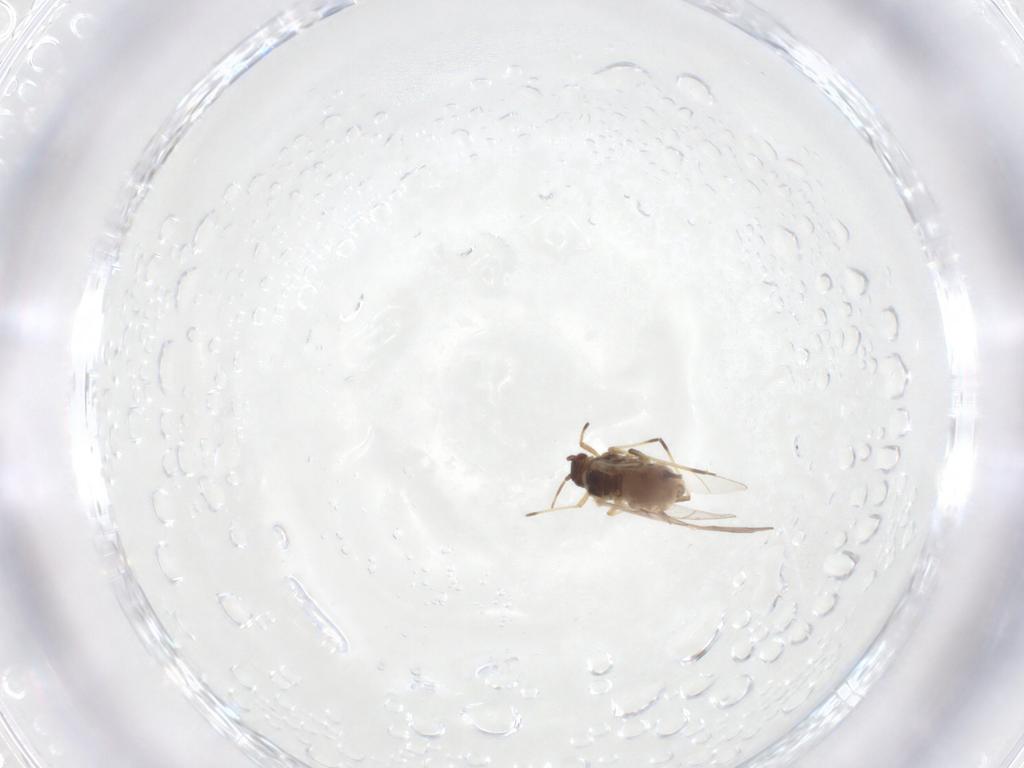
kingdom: Animalia
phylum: Arthropoda
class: Insecta
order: Hemiptera
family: Aphididae
